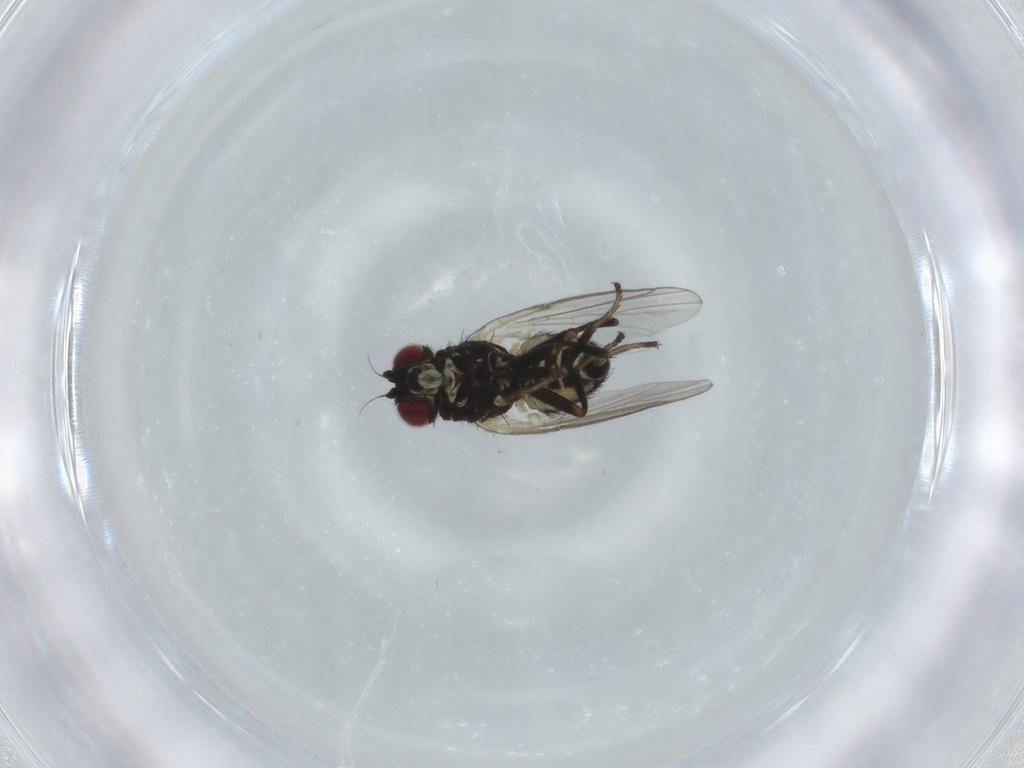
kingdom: Animalia
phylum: Arthropoda
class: Insecta
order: Diptera
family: Agromyzidae
